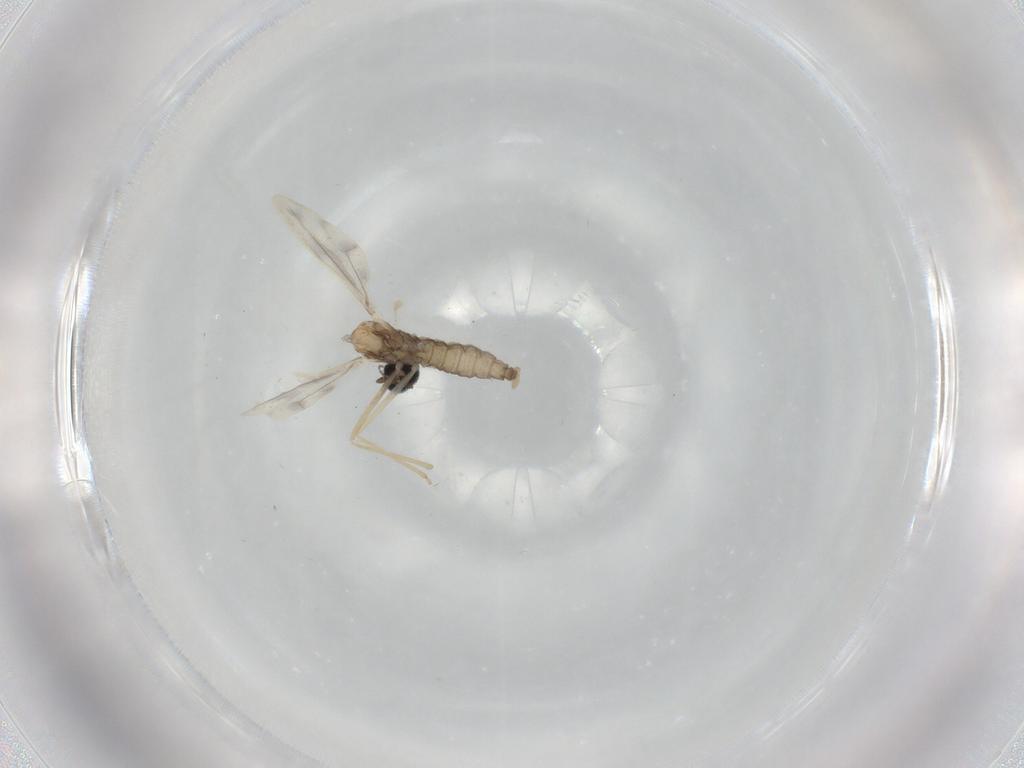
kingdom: Animalia
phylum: Arthropoda
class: Insecta
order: Diptera
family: Cecidomyiidae
